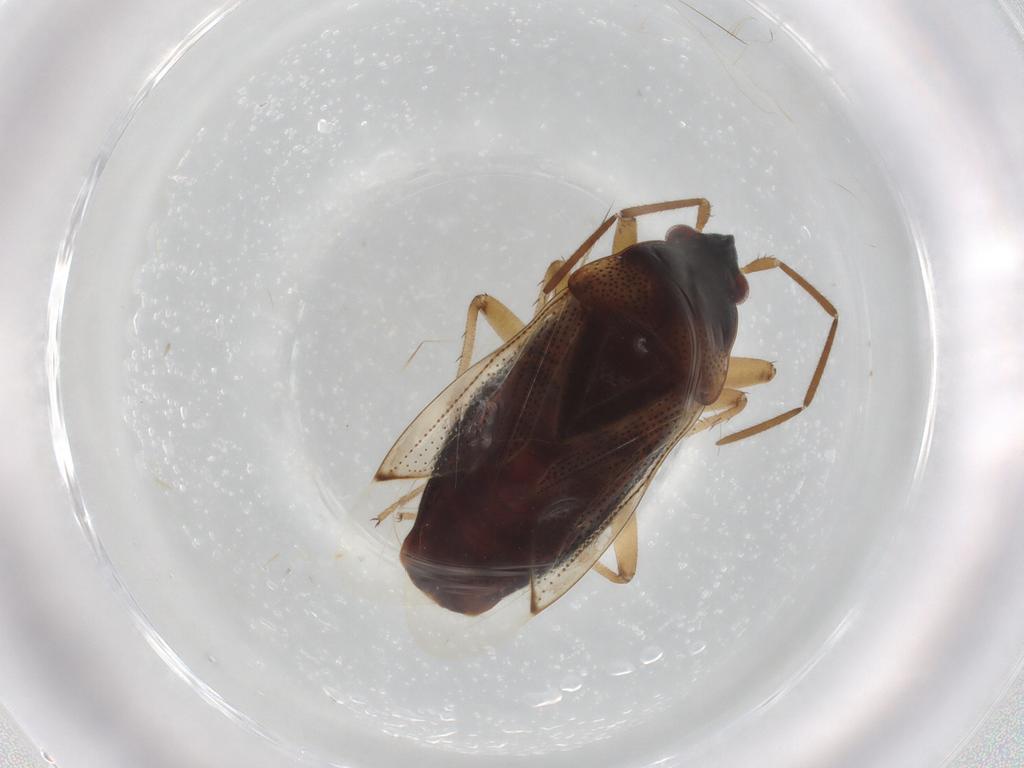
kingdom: Animalia
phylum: Arthropoda
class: Insecta
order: Hemiptera
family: Rhyparochromidae
